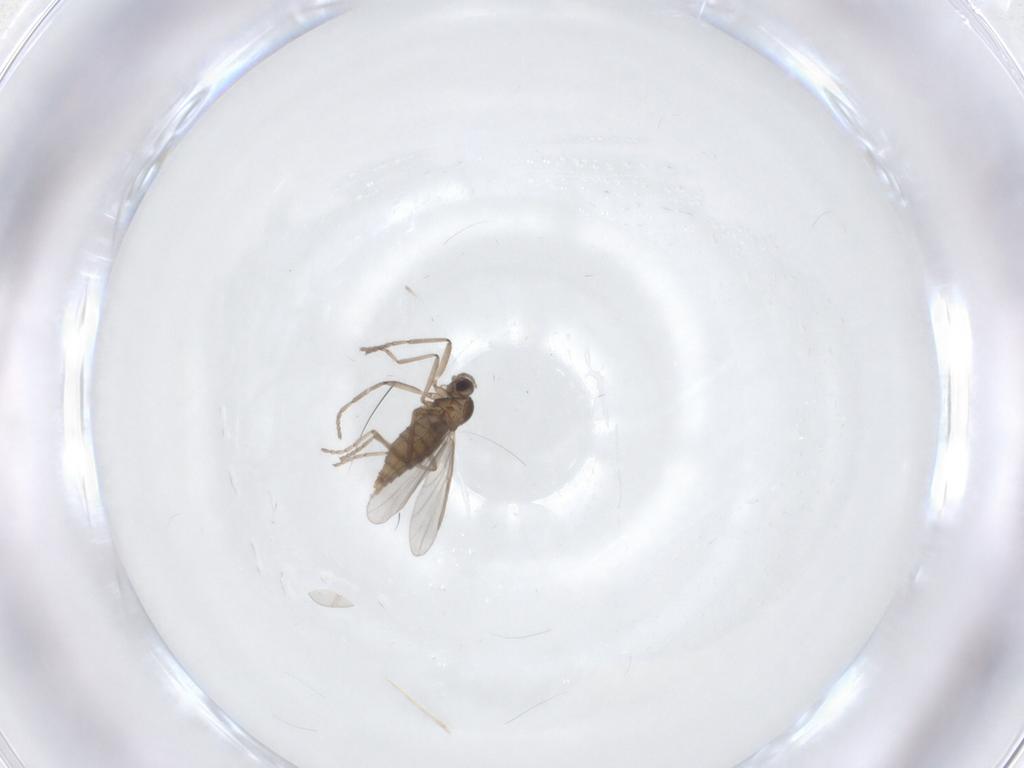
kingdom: Animalia
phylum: Arthropoda
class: Insecta
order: Diptera
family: Cecidomyiidae
